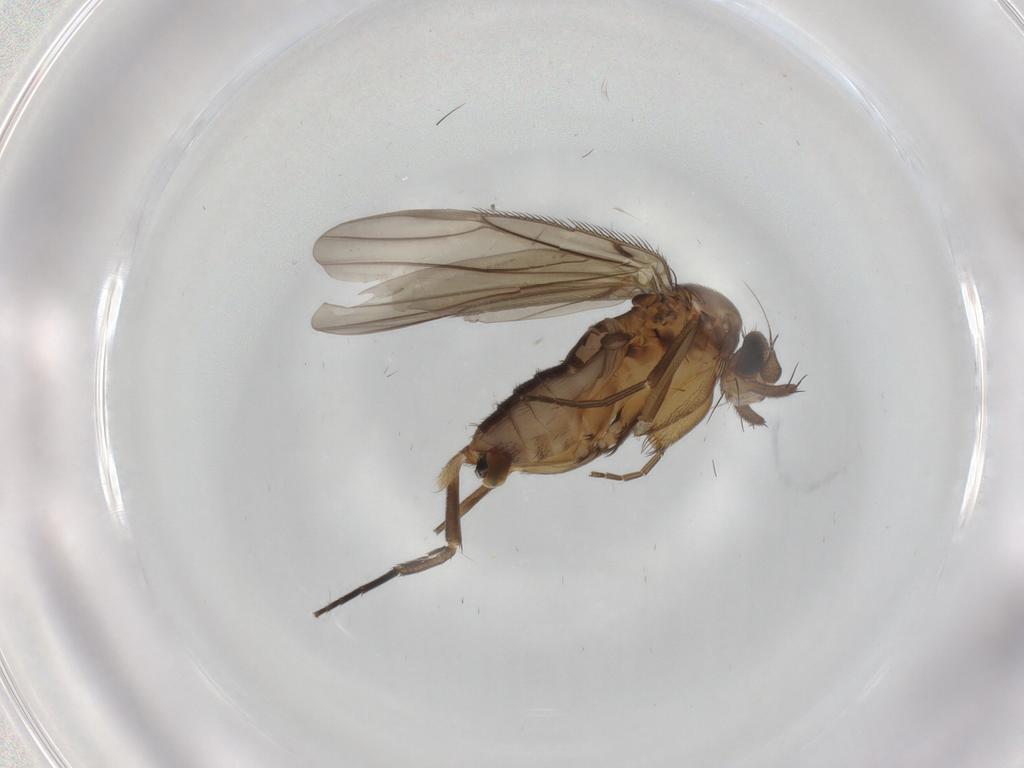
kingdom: Animalia
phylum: Arthropoda
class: Insecta
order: Diptera
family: Phoridae
